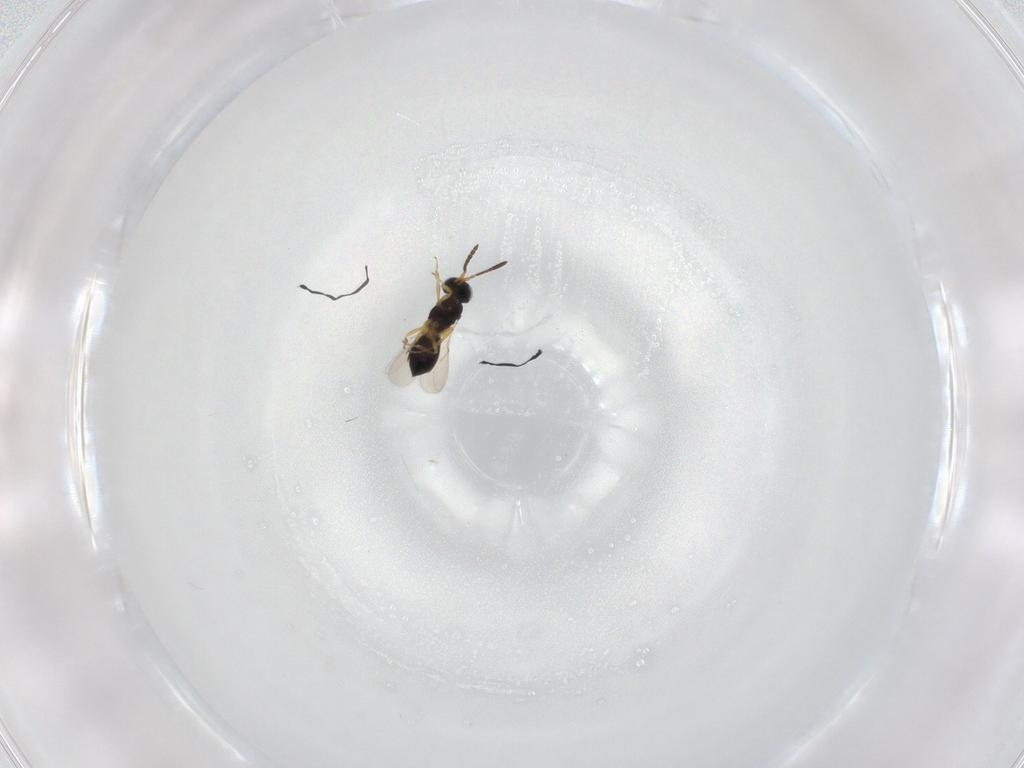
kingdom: Animalia
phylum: Arthropoda
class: Insecta
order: Hymenoptera
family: Scelionidae
